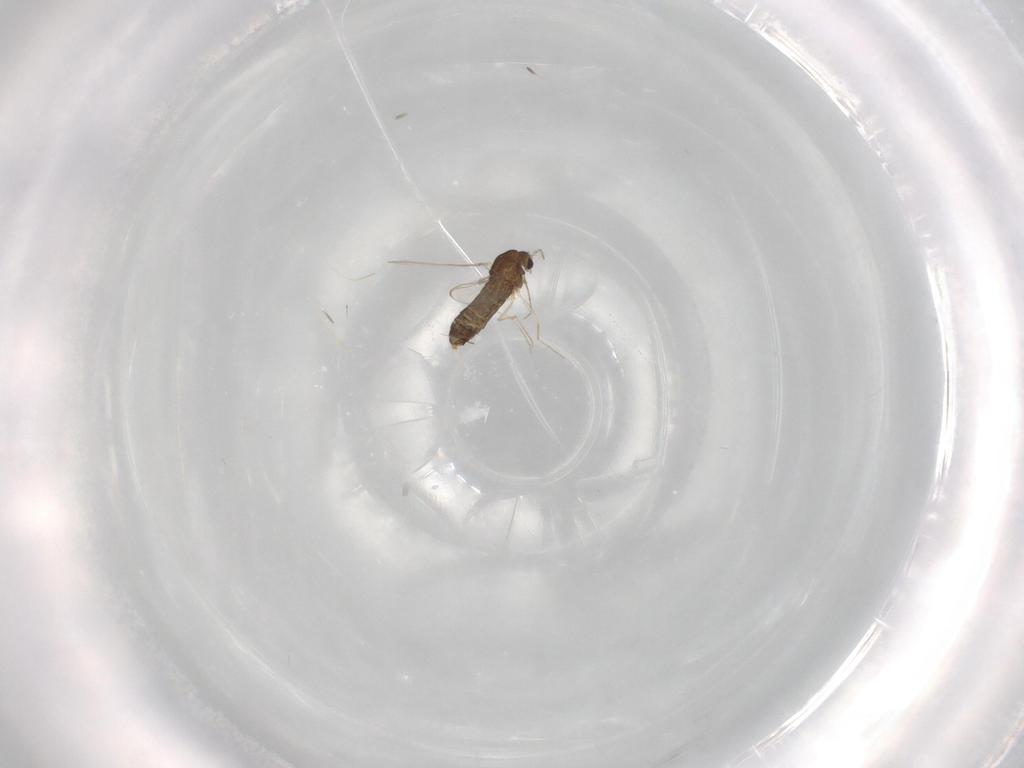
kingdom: Animalia
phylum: Arthropoda
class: Insecta
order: Diptera
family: Chironomidae
